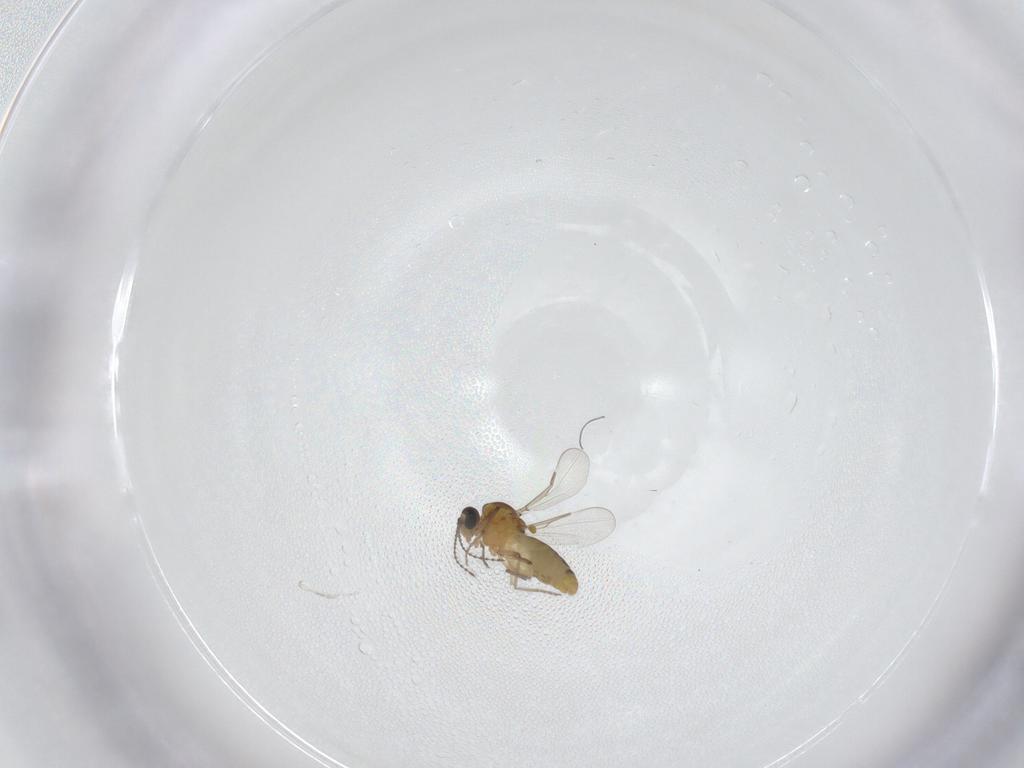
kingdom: Animalia
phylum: Arthropoda
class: Insecta
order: Diptera
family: Ceratopogonidae
